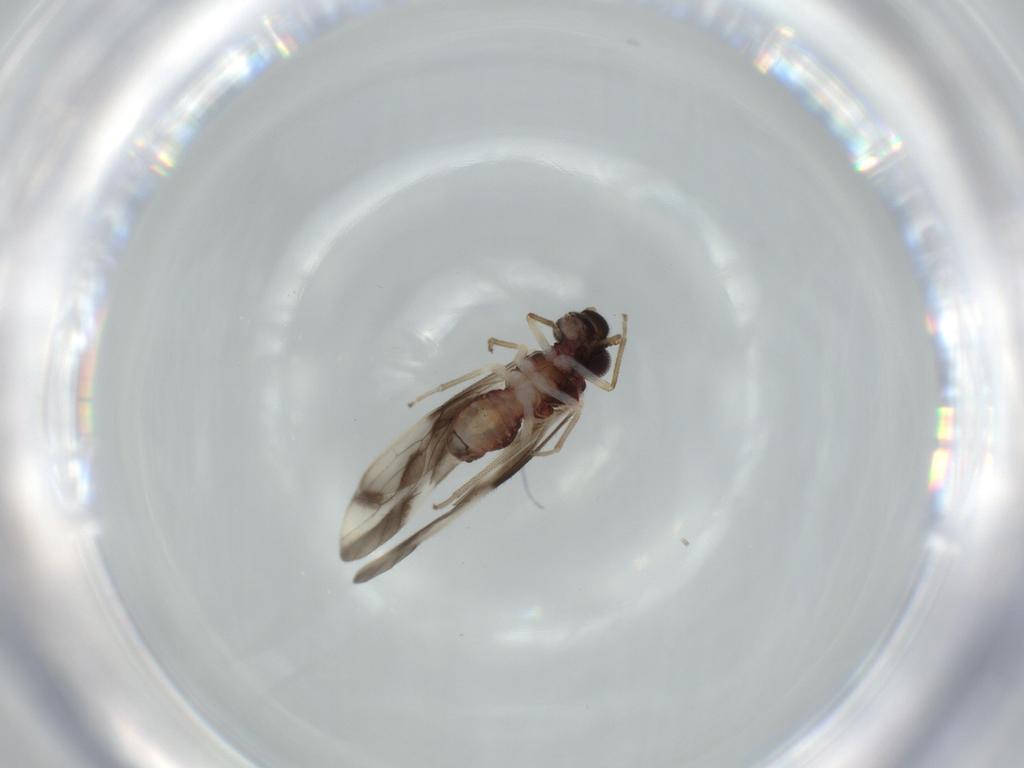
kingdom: Animalia
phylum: Arthropoda
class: Insecta
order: Psocodea
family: Caeciliusidae
